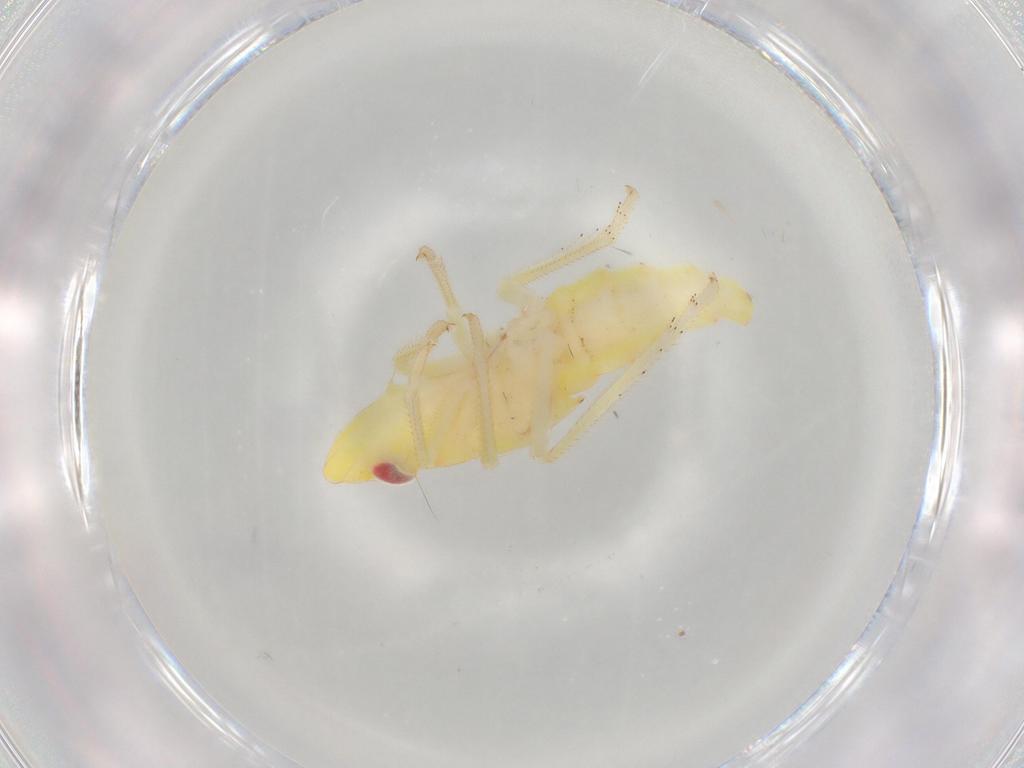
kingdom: Animalia
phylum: Arthropoda
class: Insecta
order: Hemiptera
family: Tropiduchidae
